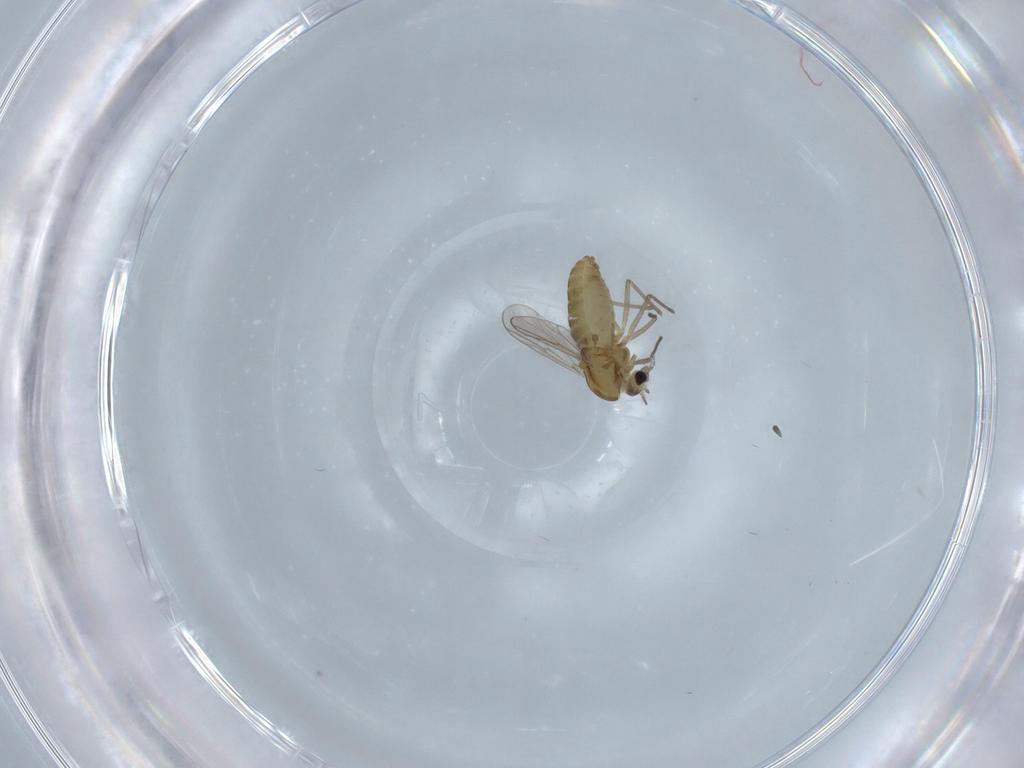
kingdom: Animalia
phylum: Arthropoda
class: Insecta
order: Diptera
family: Chironomidae
